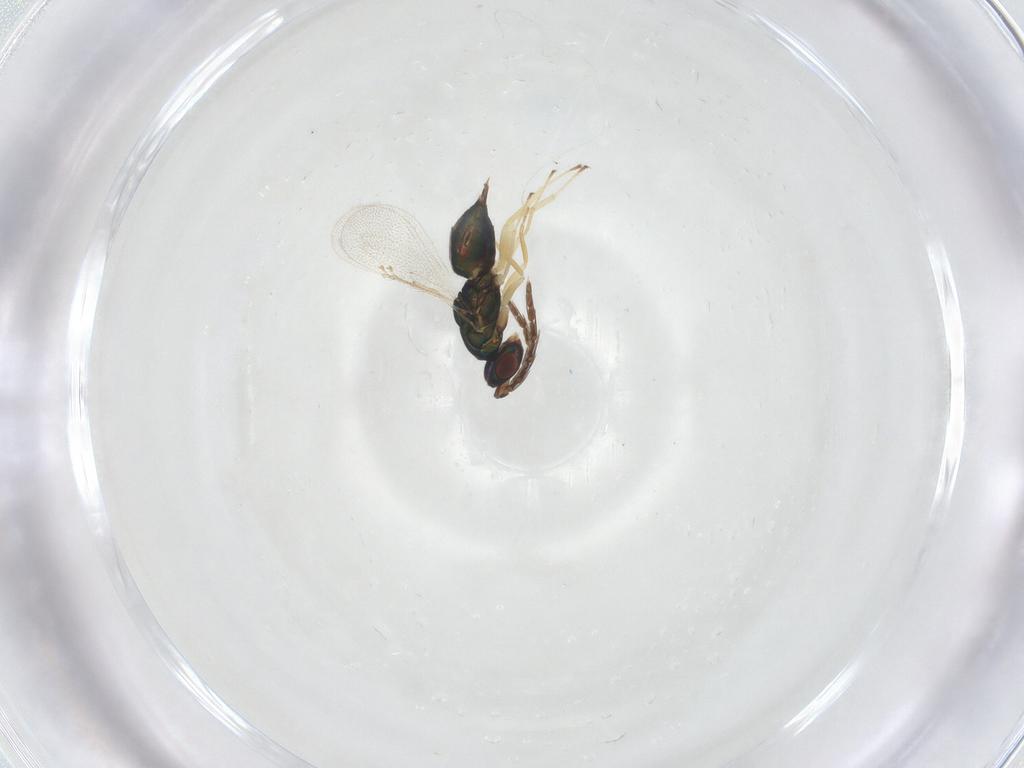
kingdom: Animalia
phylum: Arthropoda
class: Insecta
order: Hymenoptera
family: Eulophidae
